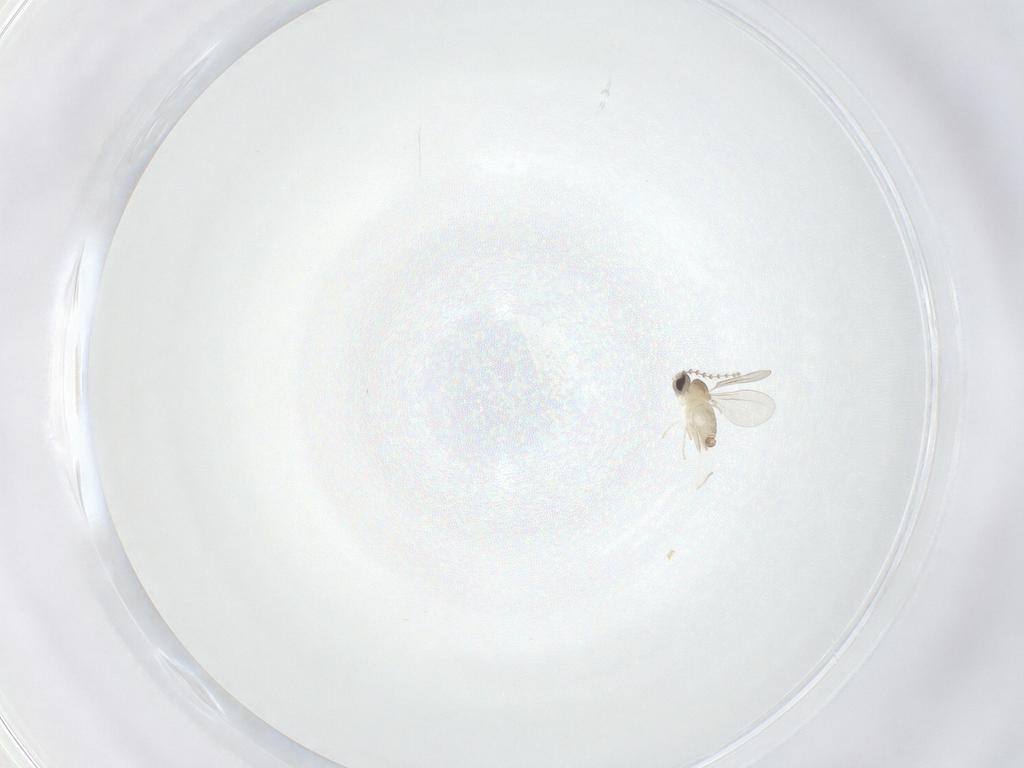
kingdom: Animalia
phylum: Arthropoda
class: Insecta
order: Diptera
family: Cecidomyiidae
